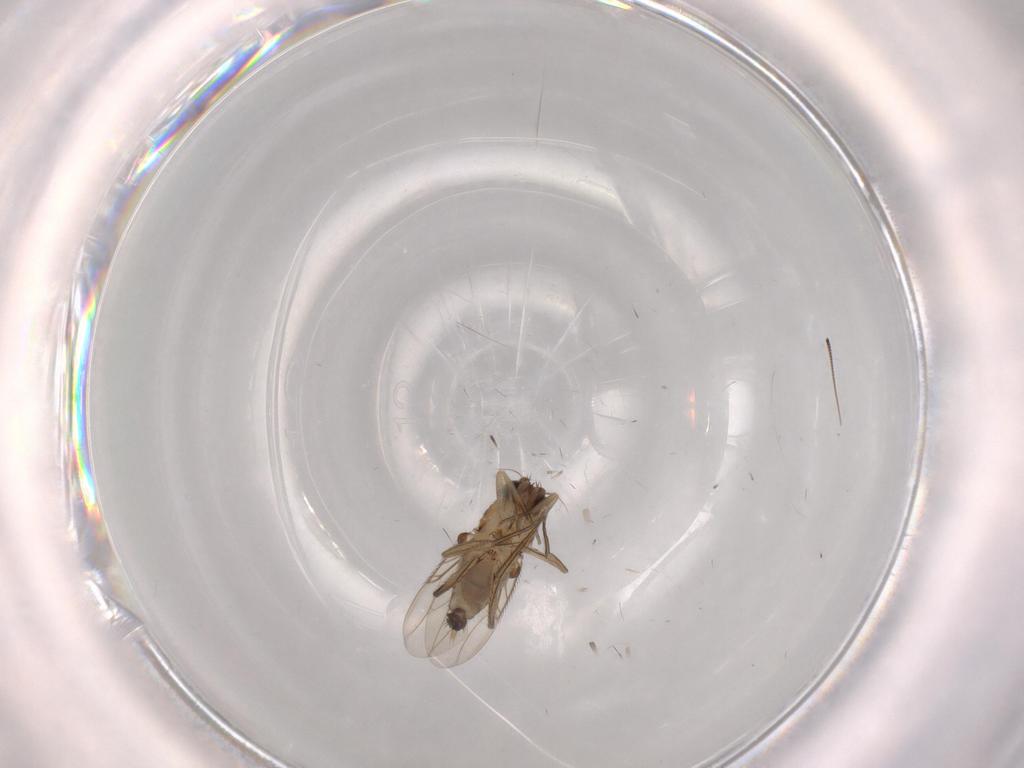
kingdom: Animalia
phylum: Arthropoda
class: Insecta
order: Diptera
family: Phoridae
